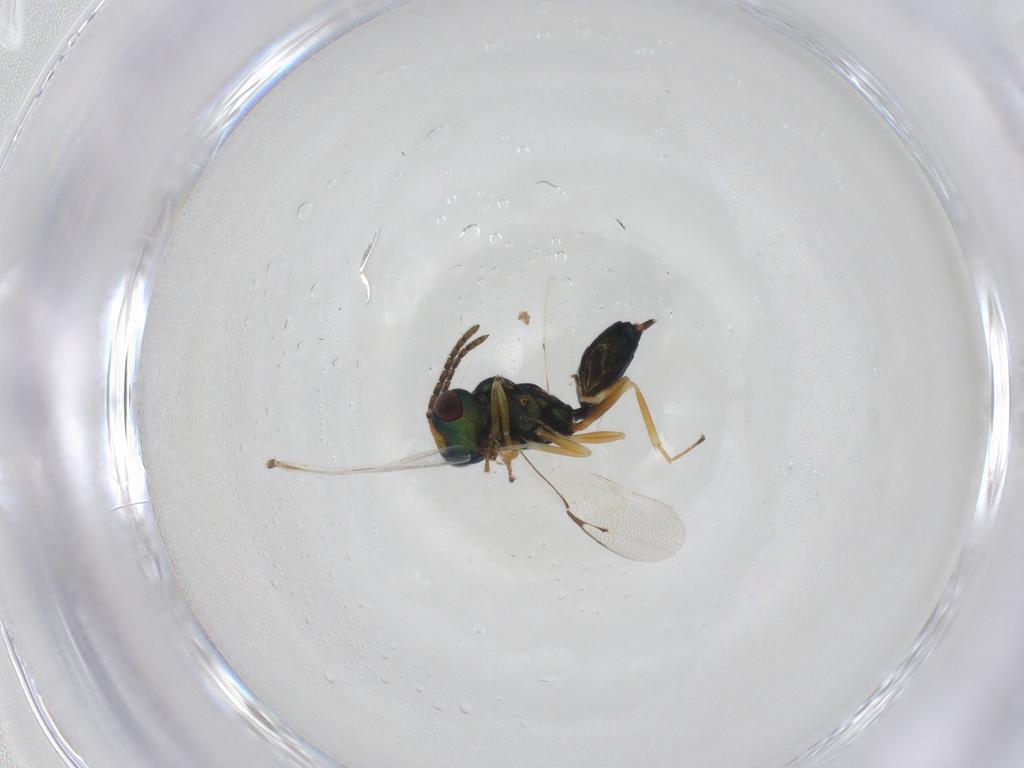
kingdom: Animalia
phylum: Arthropoda
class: Insecta
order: Hymenoptera
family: Pteromalidae
